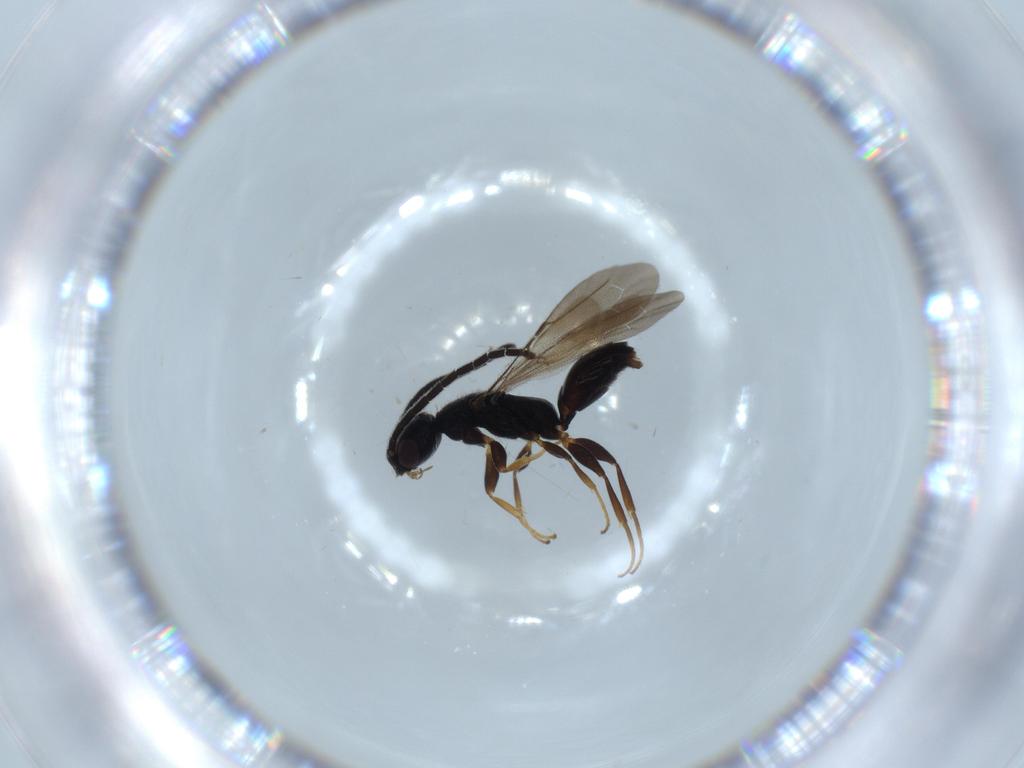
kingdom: Animalia
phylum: Arthropoda
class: Insecta
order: Hymenoptera
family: Bethylidae
